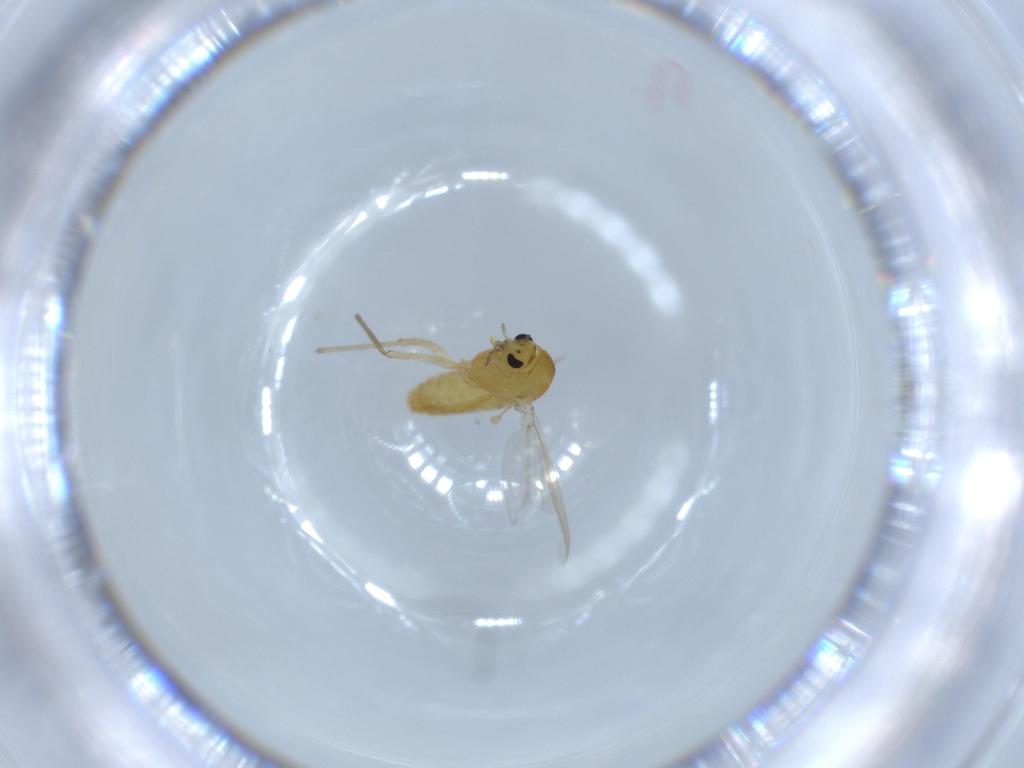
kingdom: Animalia
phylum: Arthropoda
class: Insecta
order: Diptera
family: Chironomidae
